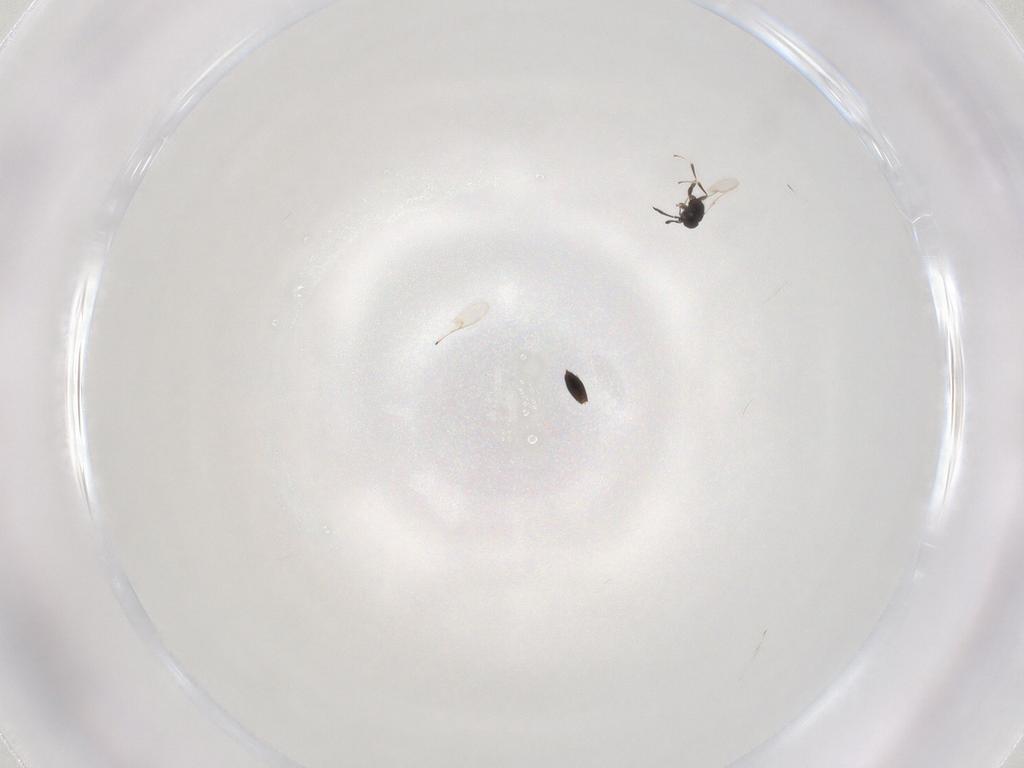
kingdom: Animalia
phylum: Arthropoda
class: Insecta
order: Hymenoptera
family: Scelionidae
